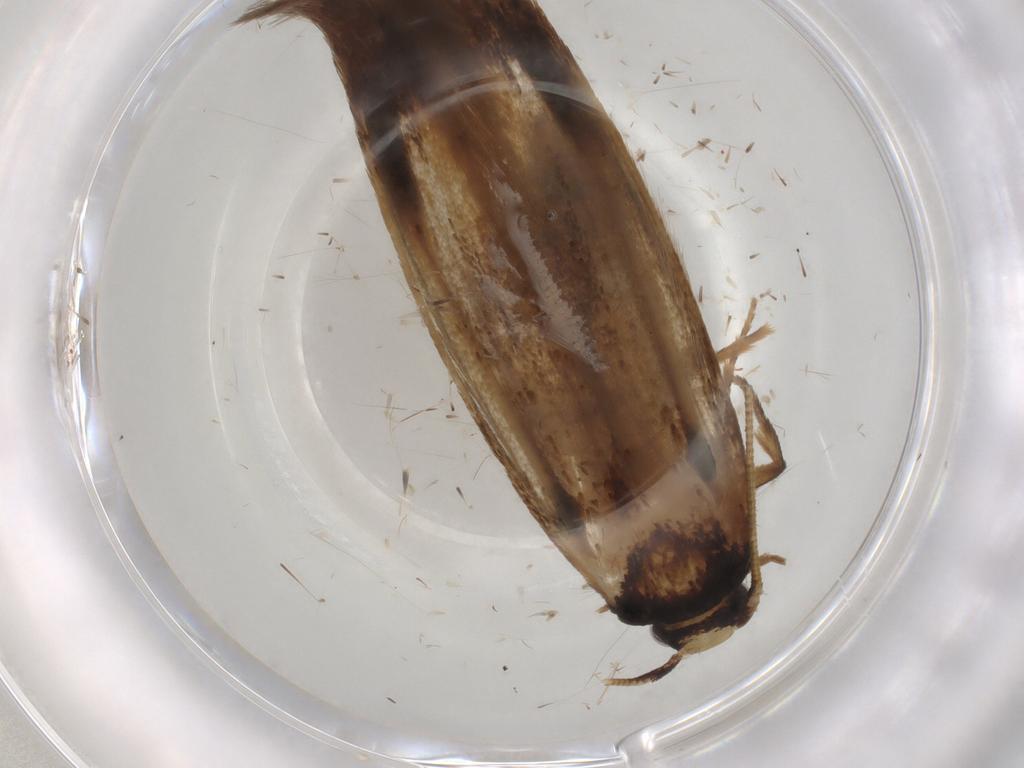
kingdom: Animalia
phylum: Arthropoda
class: Insecta
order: Lepidoptera
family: Tineidae
